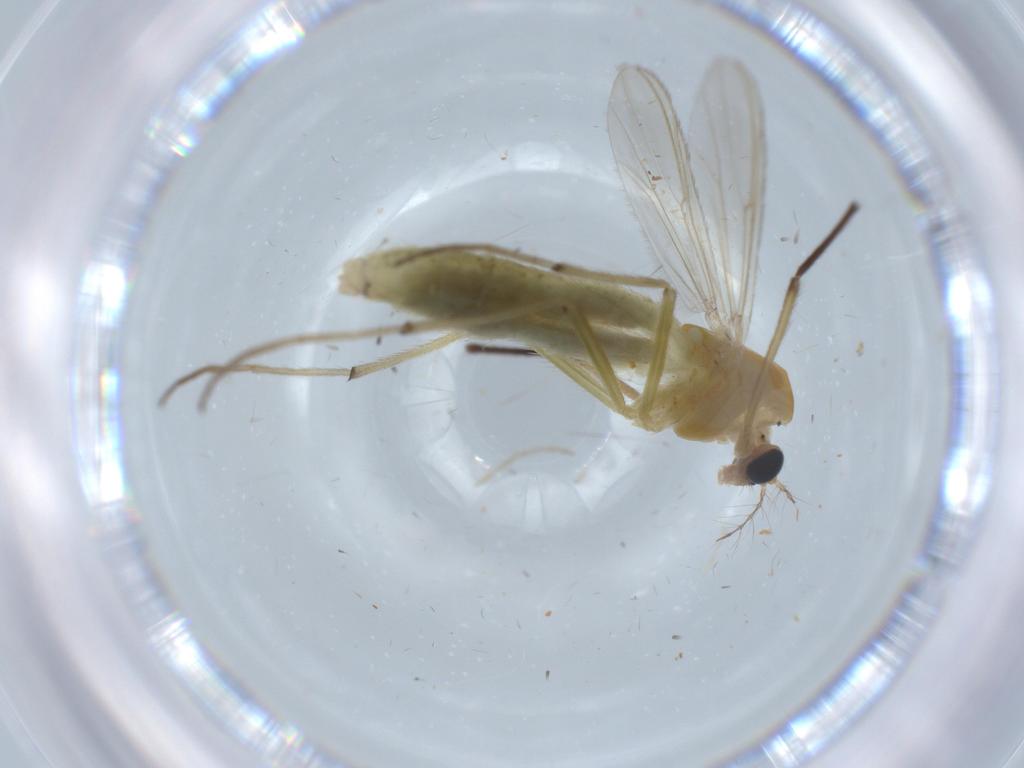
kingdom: Animalia
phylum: Arthropoda
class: Insecta
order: Diptera
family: Chironomidae
